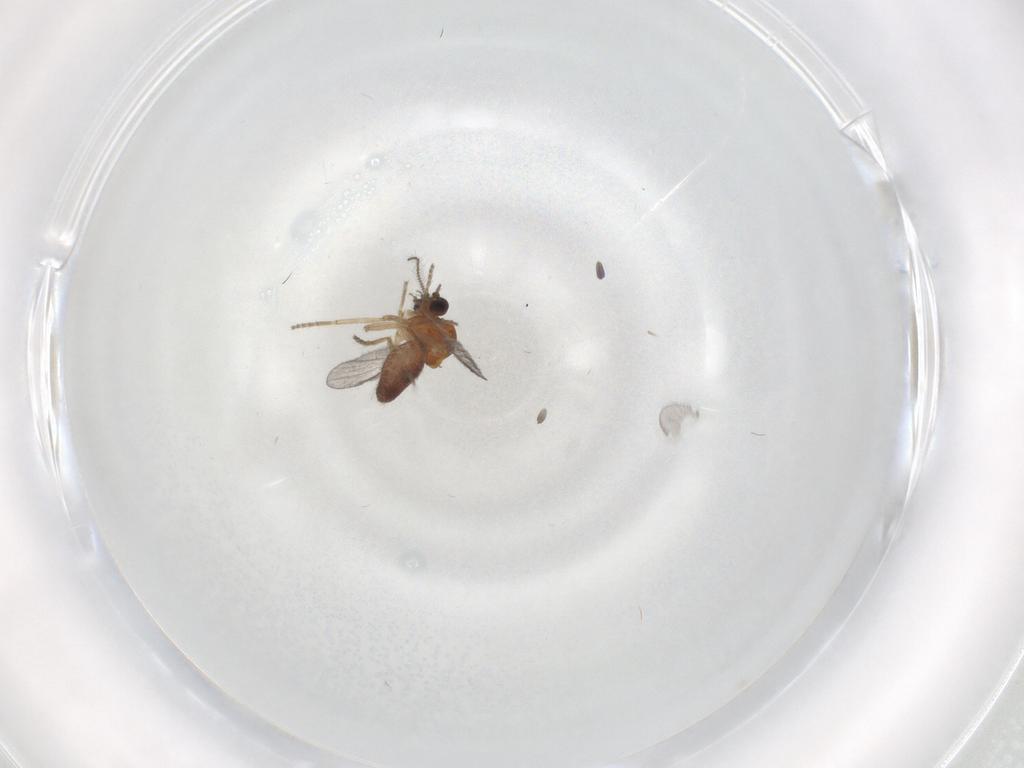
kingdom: Animalia
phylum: Arthropoda
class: Insecta
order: Diptera
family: Ceratopogonidae
